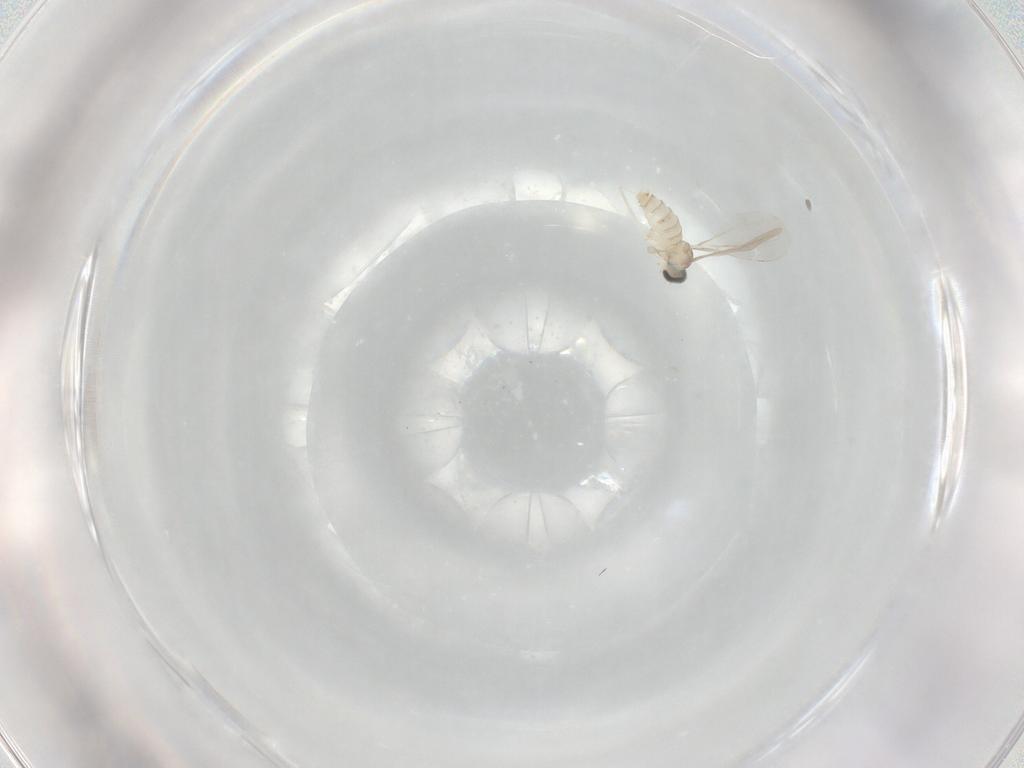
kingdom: Animalia
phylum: Arthropoda
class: Insecta
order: Diptera
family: Cecidomyiidae
